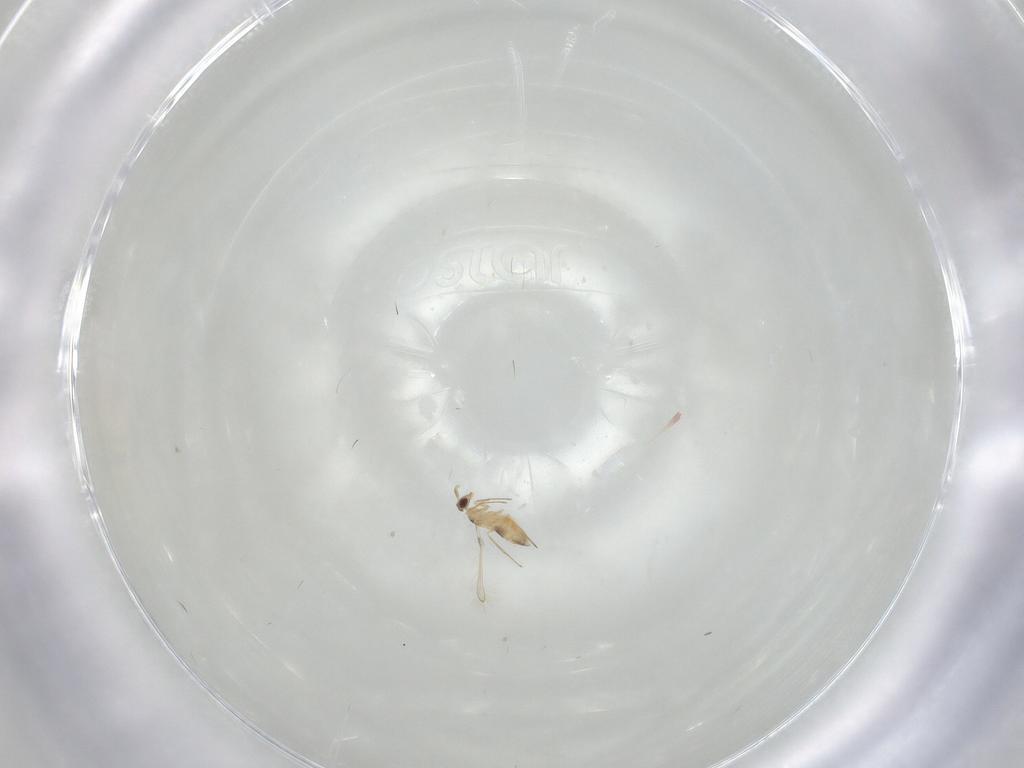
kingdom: Animalia
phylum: Arthropoda
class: Insecta
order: Hymenoptera
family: Mymaridae
